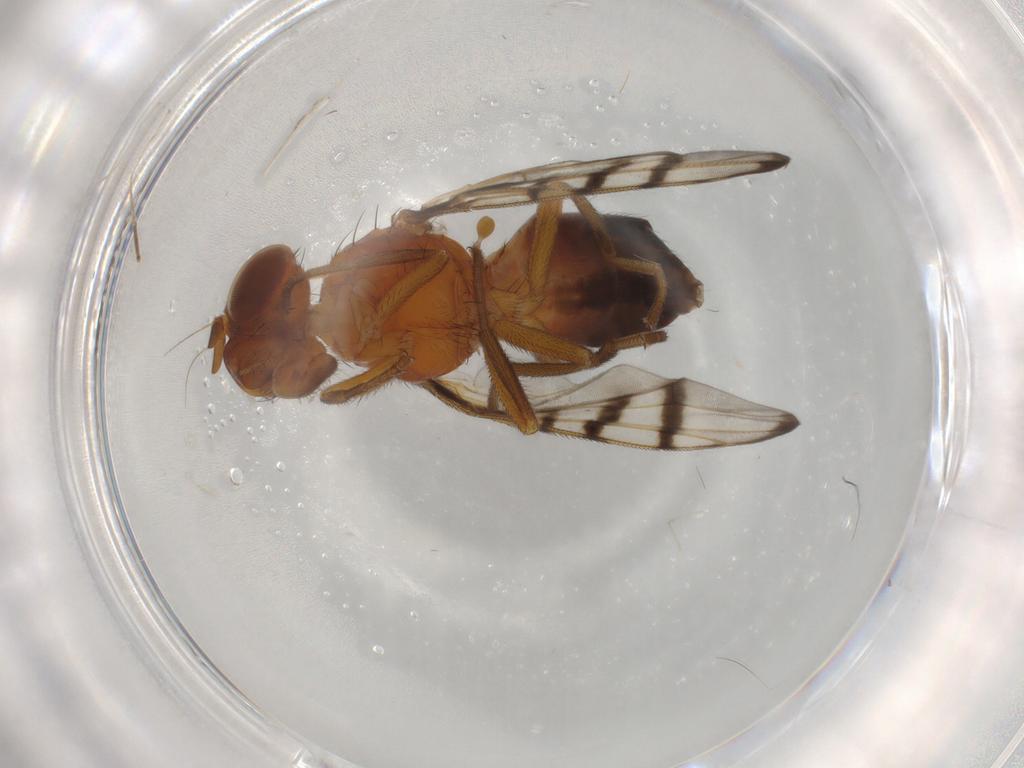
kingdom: Animalia
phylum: Arthropoda
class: Insecta
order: Diptera
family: Platystomatidae
